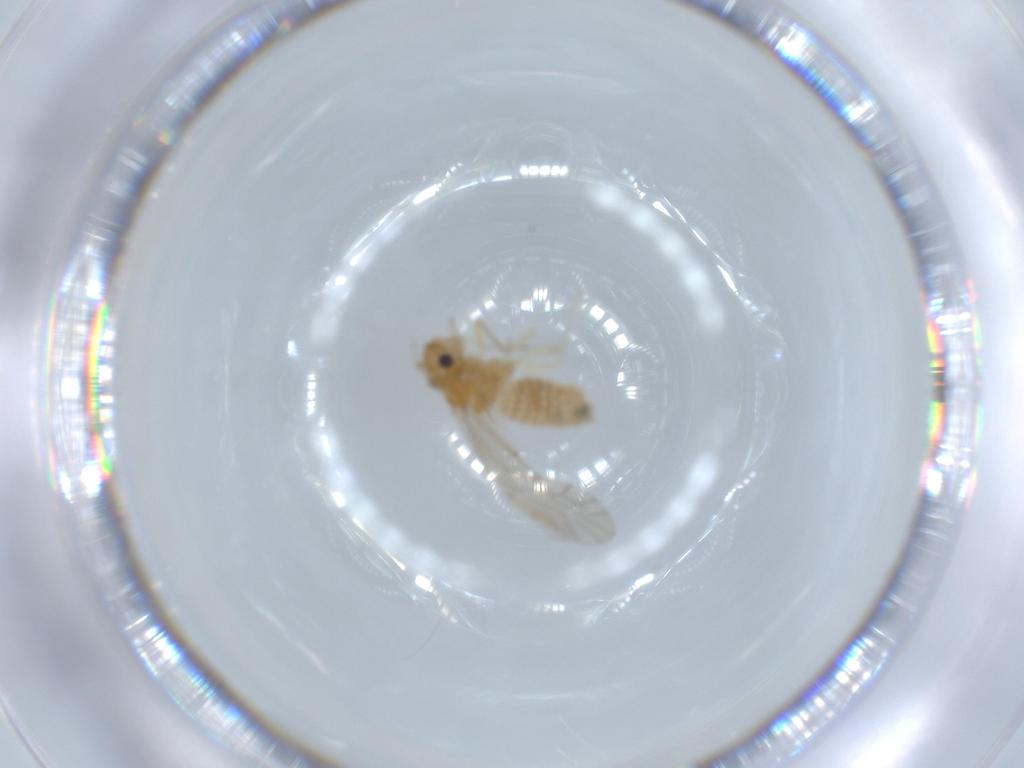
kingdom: Animalia
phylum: Arthropoda
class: Insecta
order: Psocodea
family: Lachesillidae
